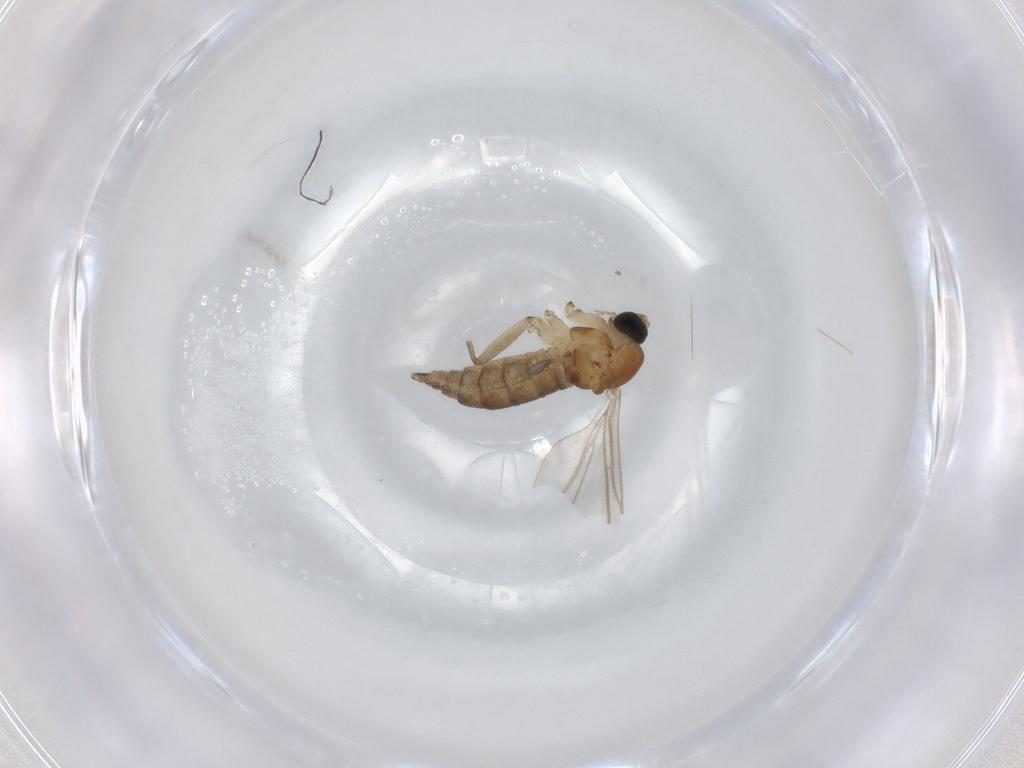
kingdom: Animalia
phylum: Arthropoda
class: Insecta
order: Diptera
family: Sciaridae
